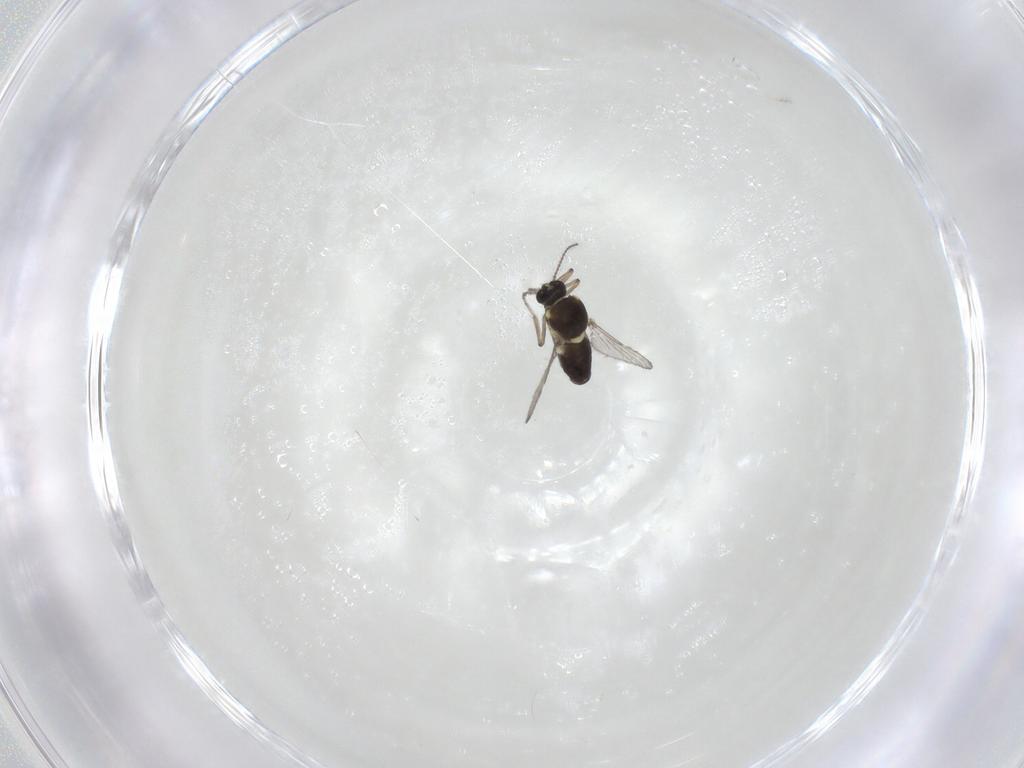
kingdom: Animalia
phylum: Arthropoda
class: Insecta
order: Diptera
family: Ceratopogonidae
